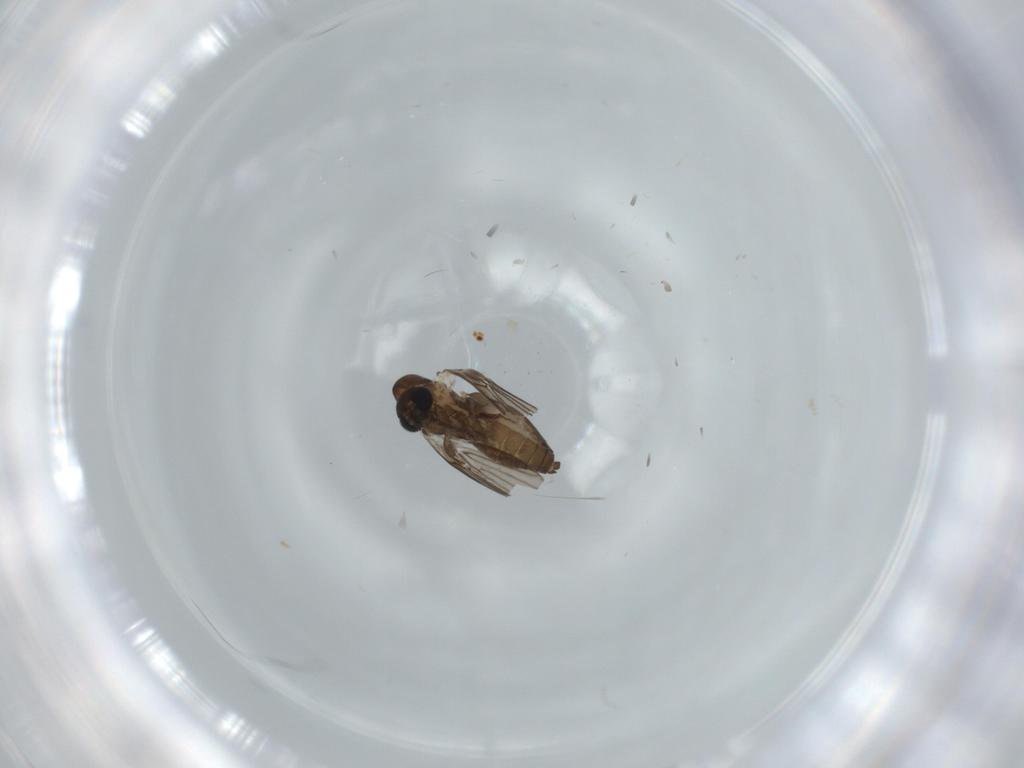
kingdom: Animalia
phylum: Arthropoda
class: Insecta
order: Diptera
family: Psychodidae
